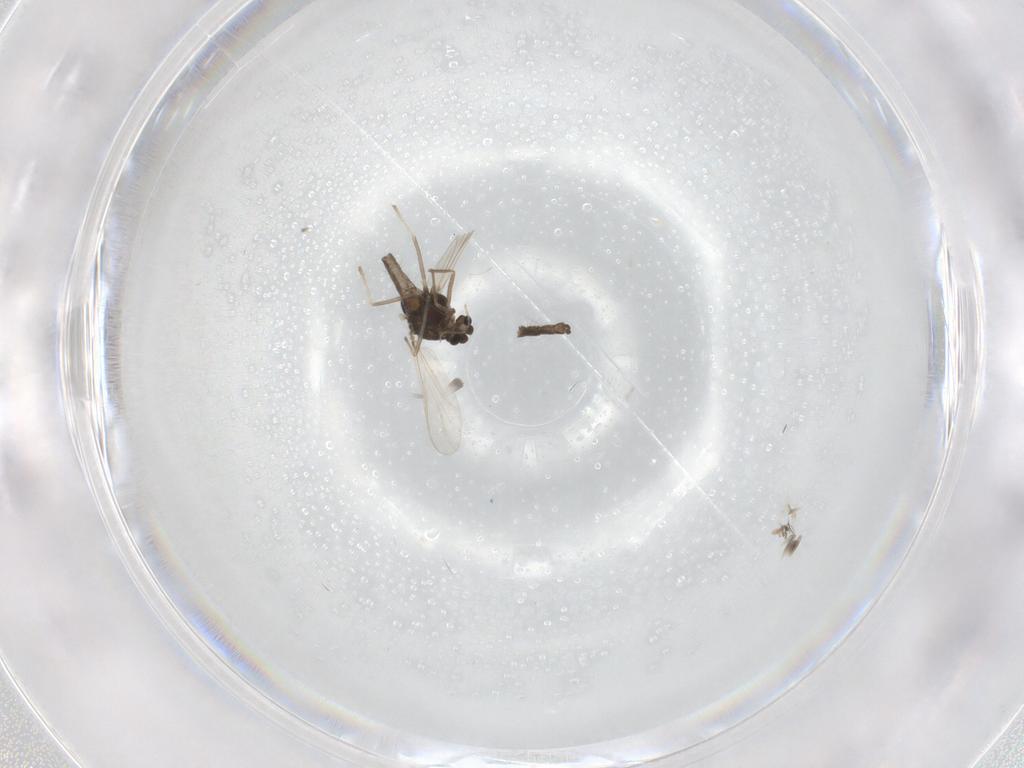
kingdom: Animalia
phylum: Arthropoda
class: Insecta
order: Diptera
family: Chironomidae
